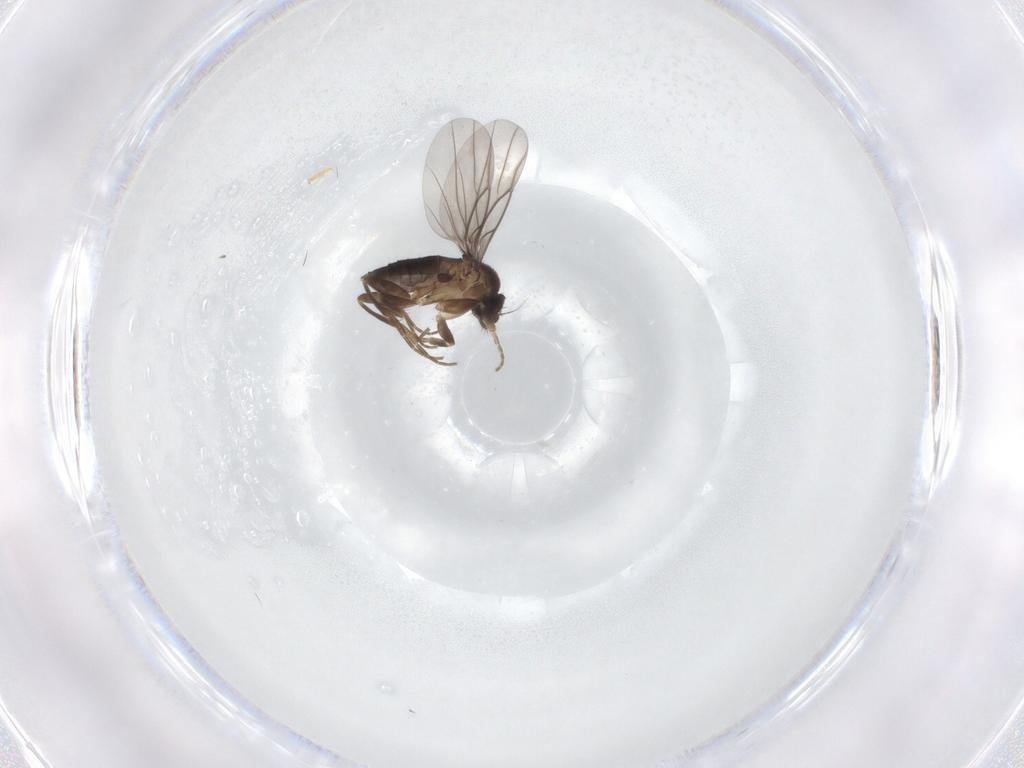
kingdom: Animalia
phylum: Arthropoda
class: Insecta
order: Diptera
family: Phoridae
